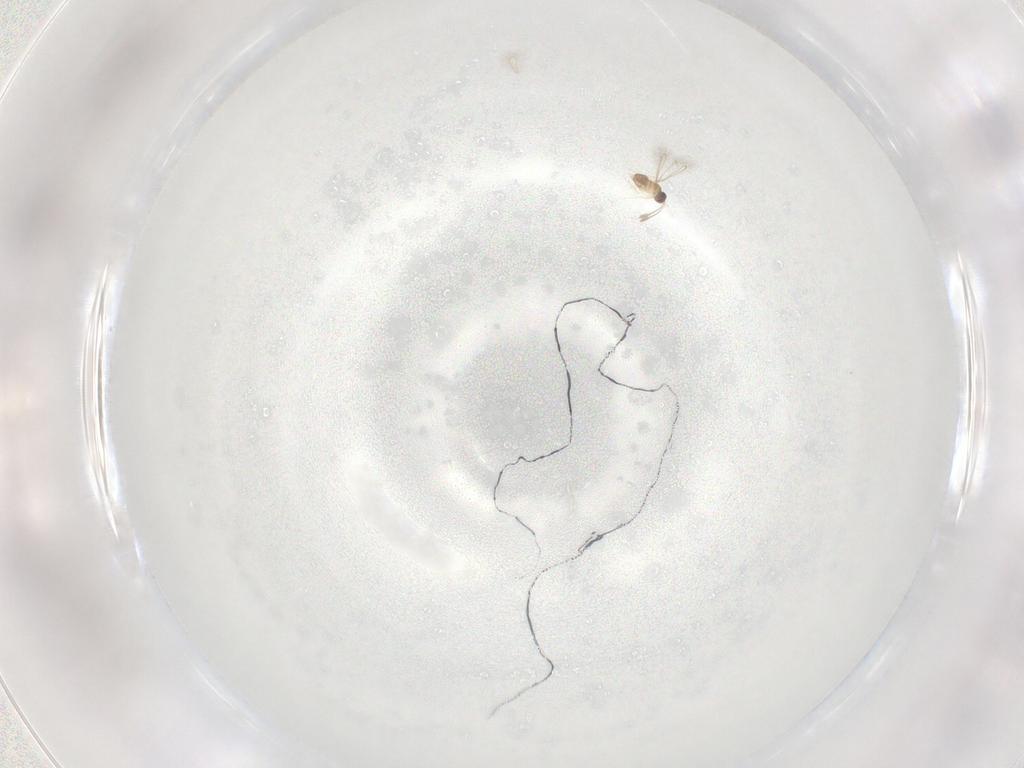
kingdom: Animalia
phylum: Arthropoda
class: Insecta
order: Hymenoptera
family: Mymaridae
